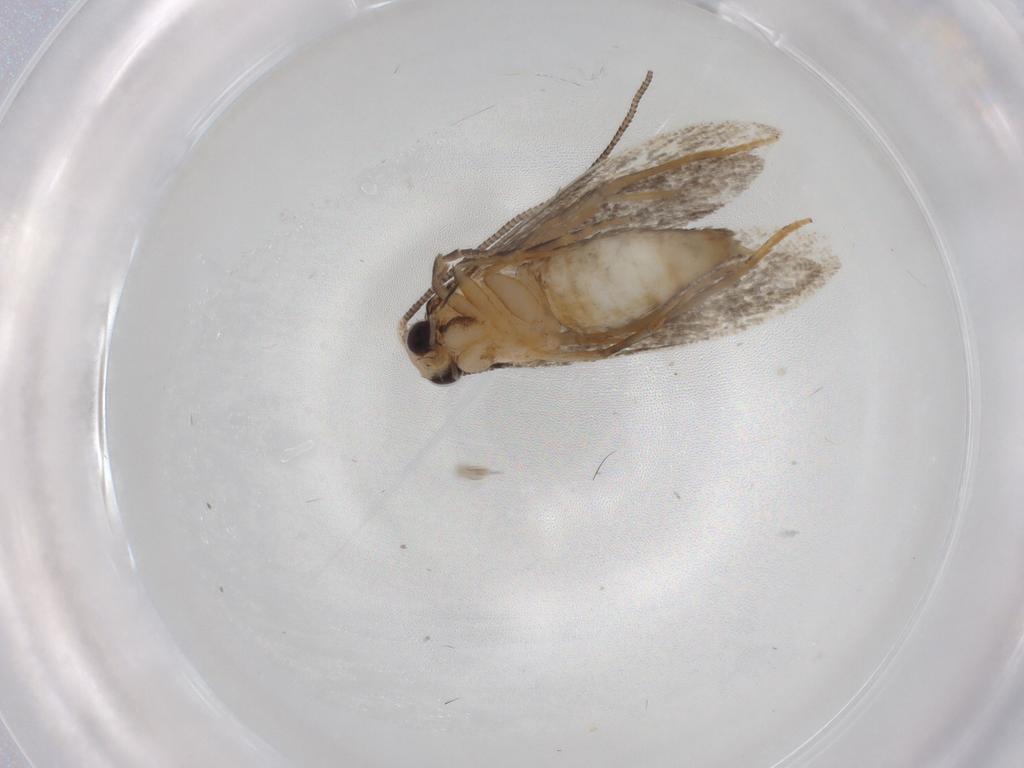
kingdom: Animalia
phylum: Arthropoda
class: Insecta
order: Lepidoptera
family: Tineidae
